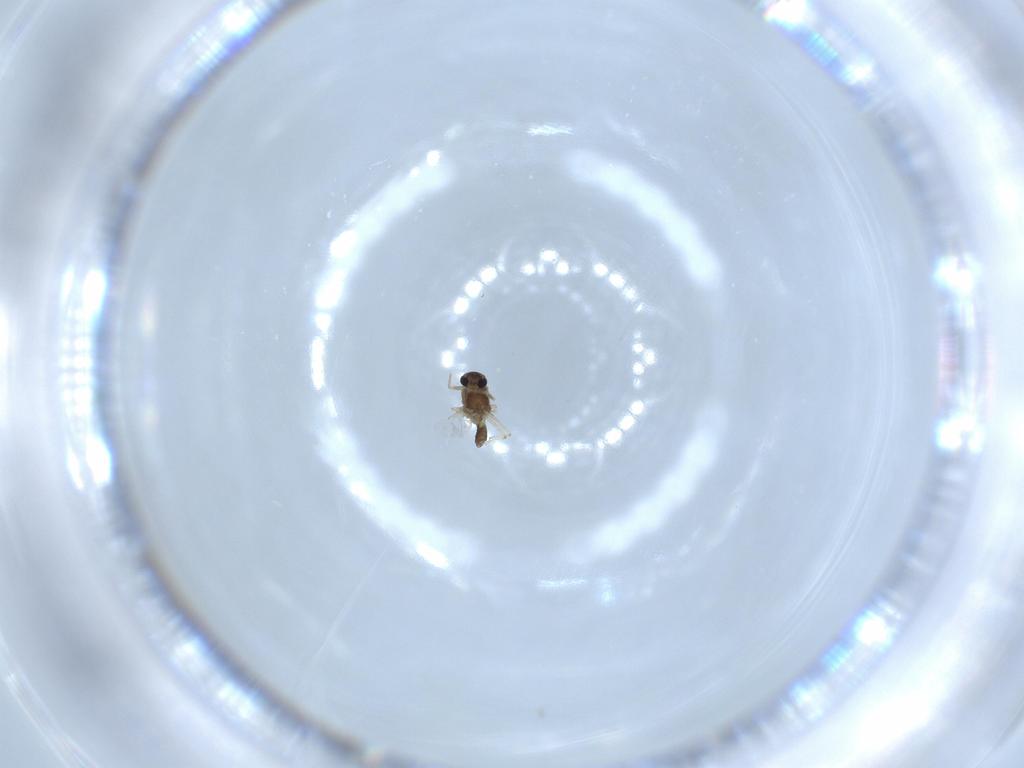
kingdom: Animalia
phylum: Arthropoda
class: Insecta
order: Diptera
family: Chironomidae
